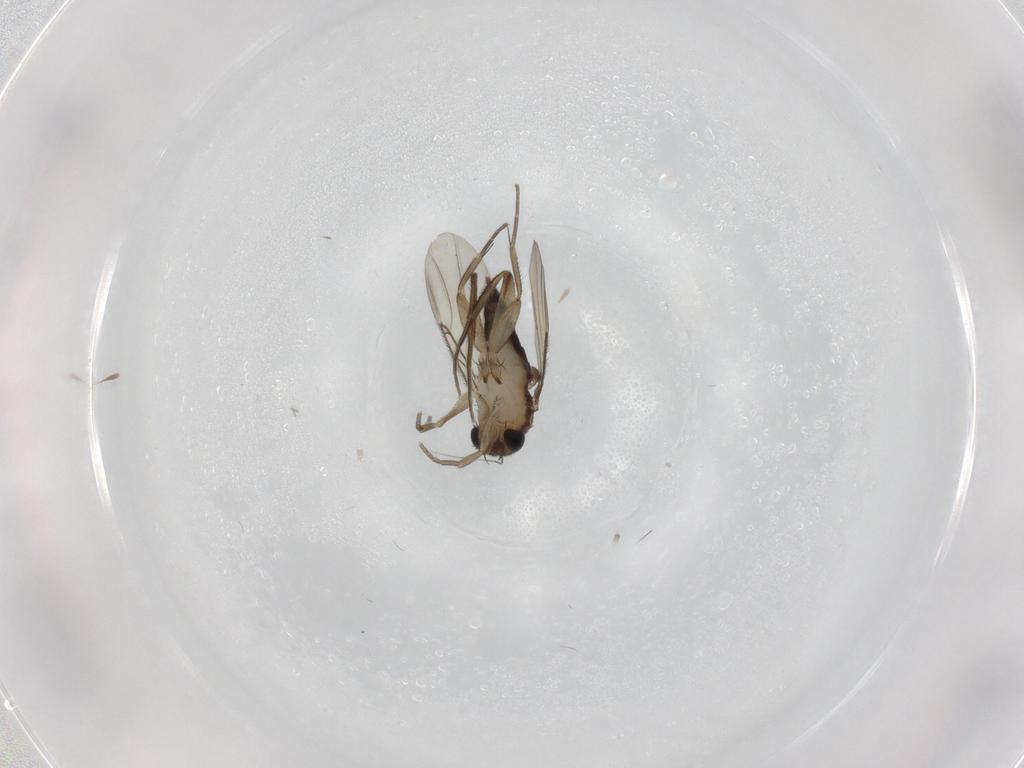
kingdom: Animalia
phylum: Arthropoda
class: Insecta
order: Diptera
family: Phoridae
